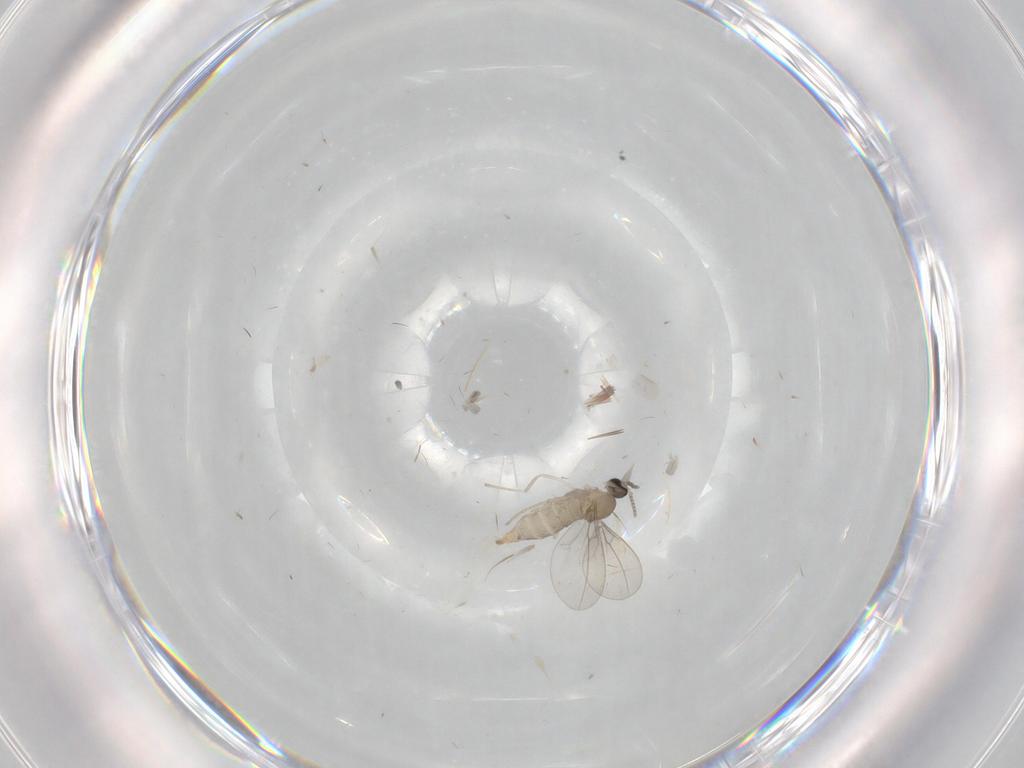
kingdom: Animalia
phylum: Arthropoda
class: Insecta
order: Diptera
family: Cecidomyiidae
